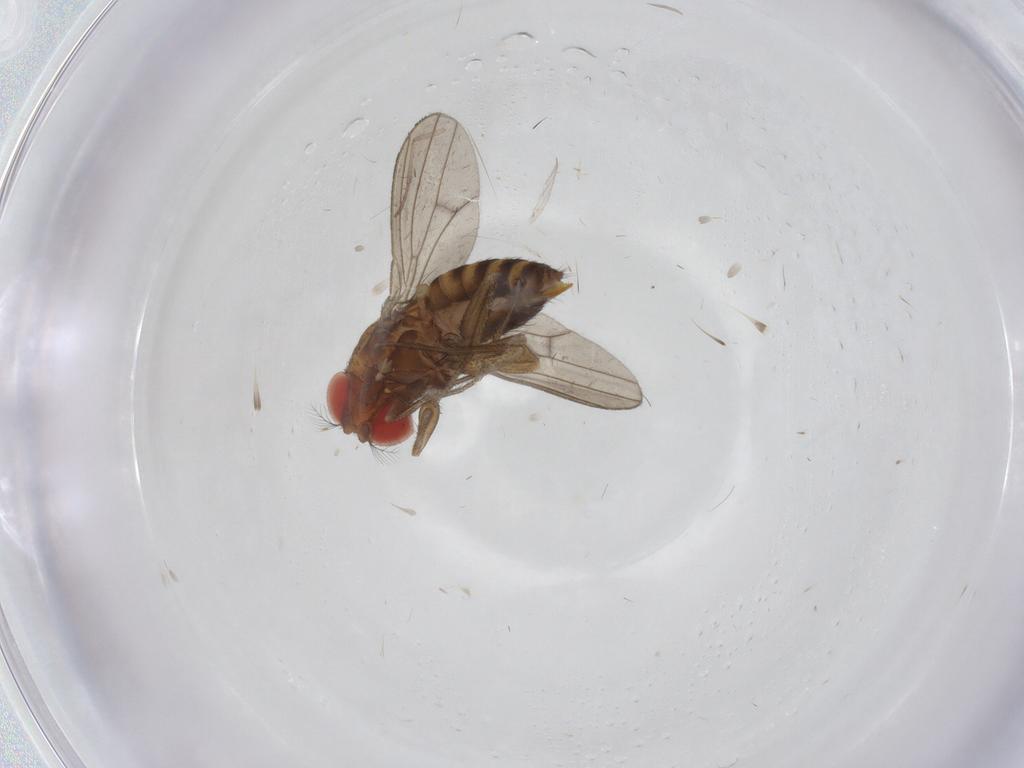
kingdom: Animalia
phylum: Arthropoda
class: Insecta
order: Diptera
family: Drosophilidae
